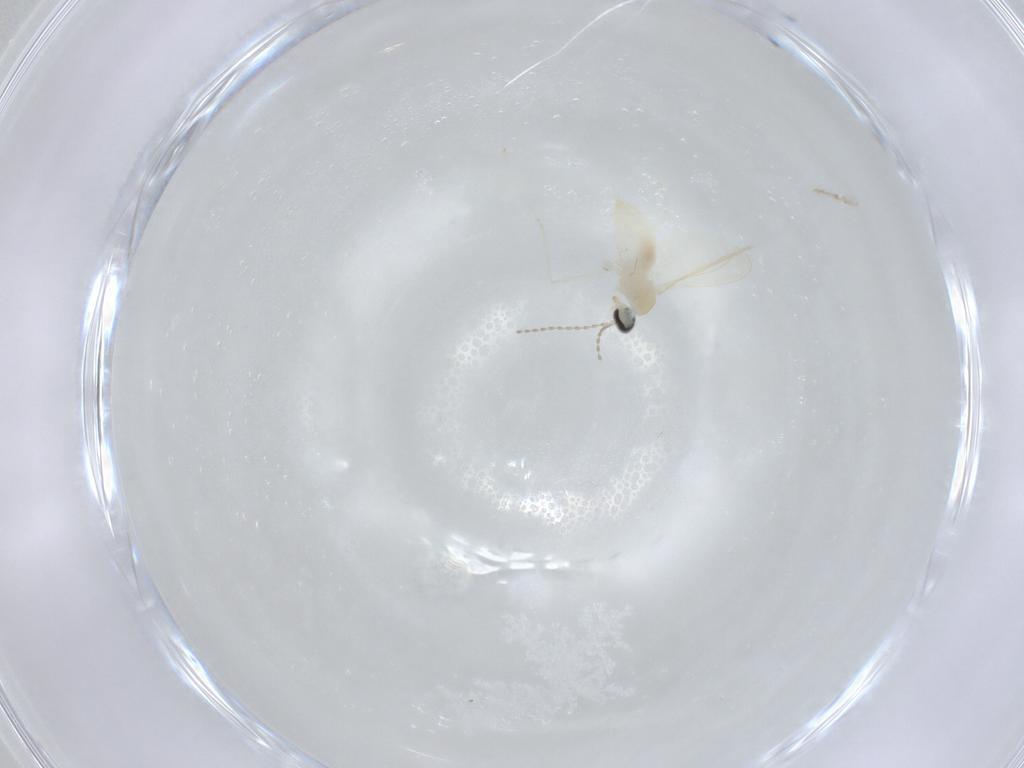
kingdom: Animalia
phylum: Arthropoda
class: Insecta
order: Diptera
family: Cecidomyiidae
